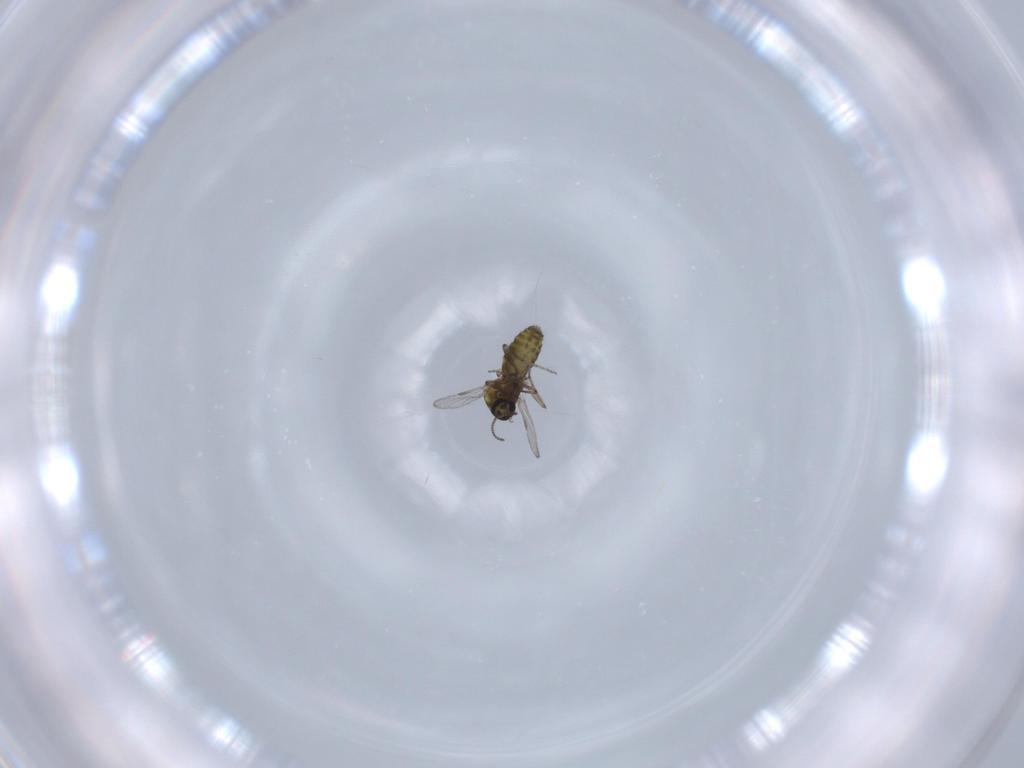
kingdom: Animalia
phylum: Arthropoda
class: Insecta
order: Diptera
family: Ceratopogonidae
